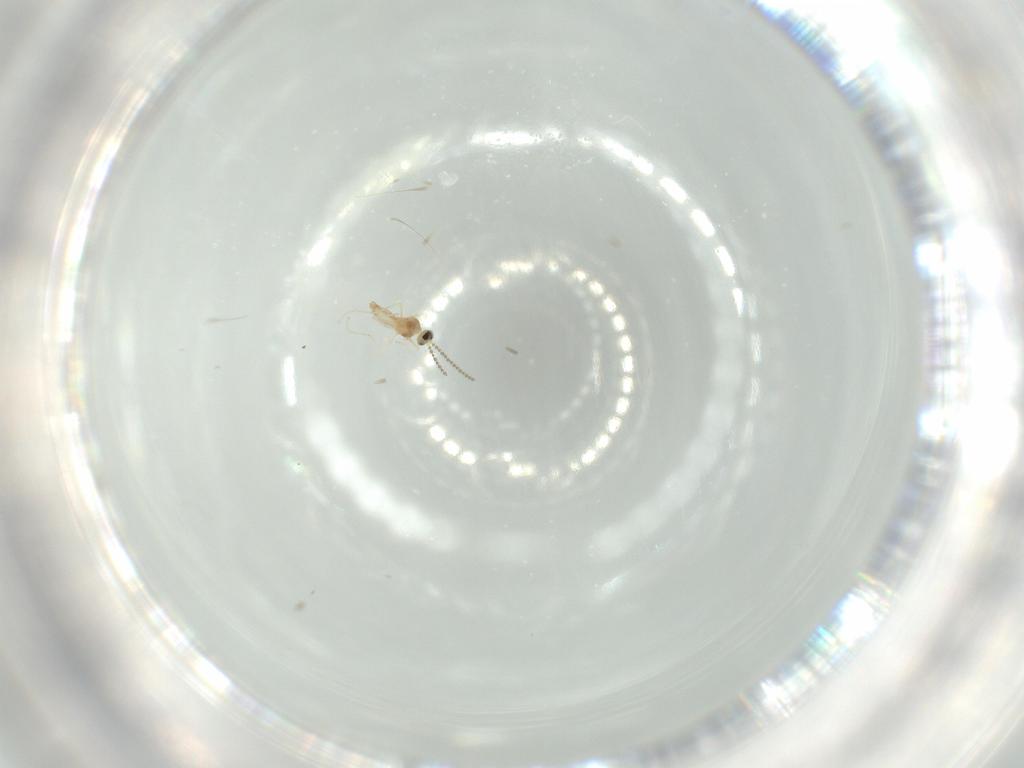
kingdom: Animalia
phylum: Arthropoda
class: Insecta
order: Diptera
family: Cecidomyiidae
